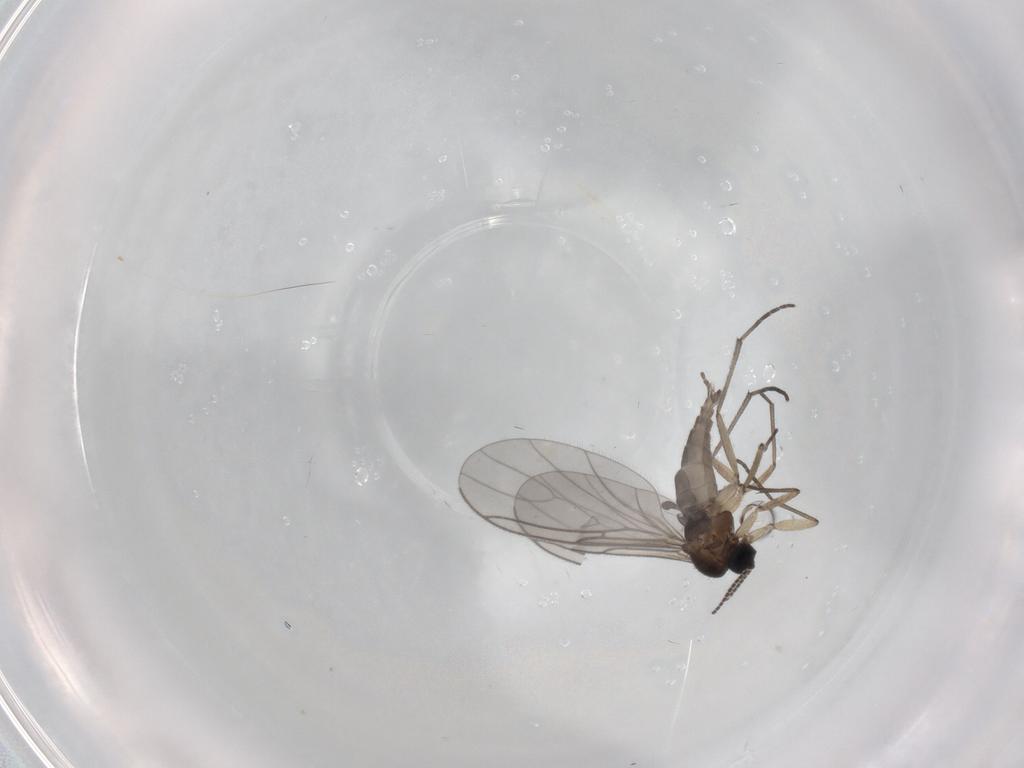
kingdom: Animalia
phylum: Arthropoda
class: Insecta
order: Diptera
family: Sciaridae
